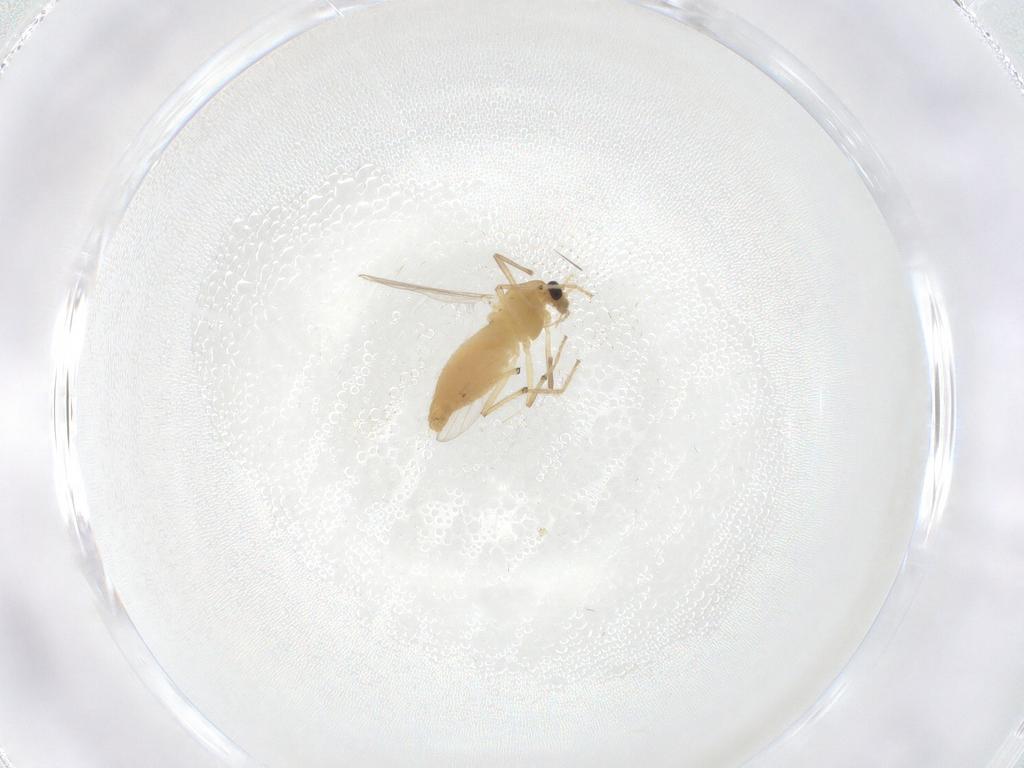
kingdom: Animalia
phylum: Arthropoda
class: Insecta
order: Diptera
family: Chironomidae
